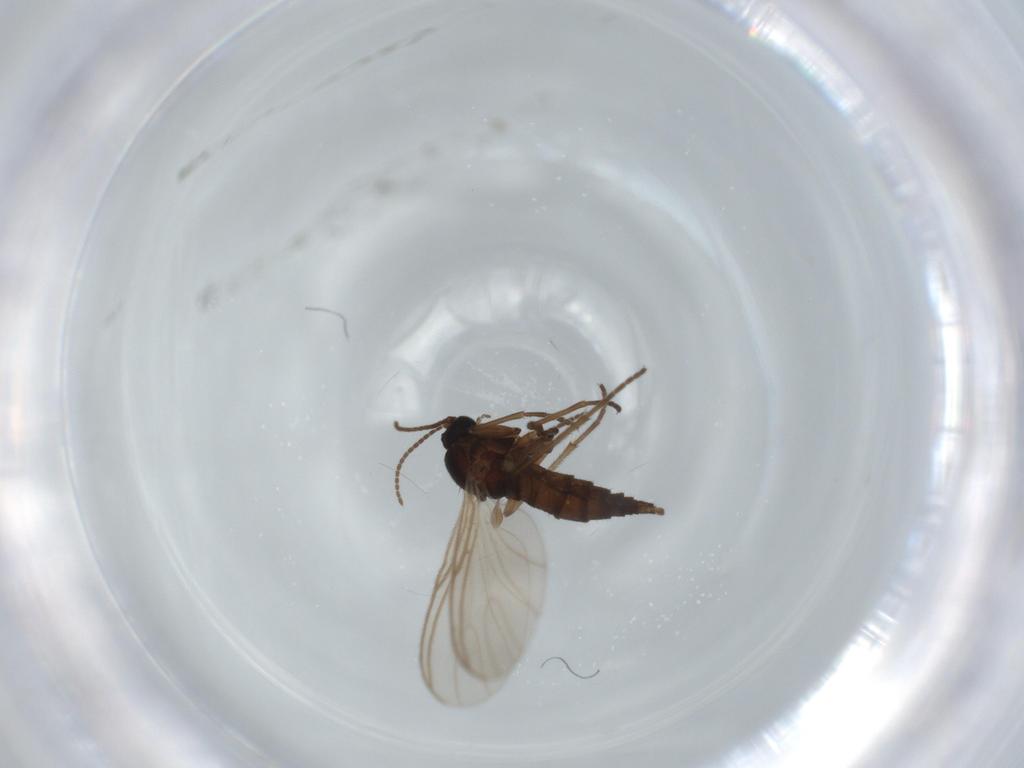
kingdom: Animalia
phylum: Arthropoda
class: Insecta
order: Diptera
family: Sciaridae
